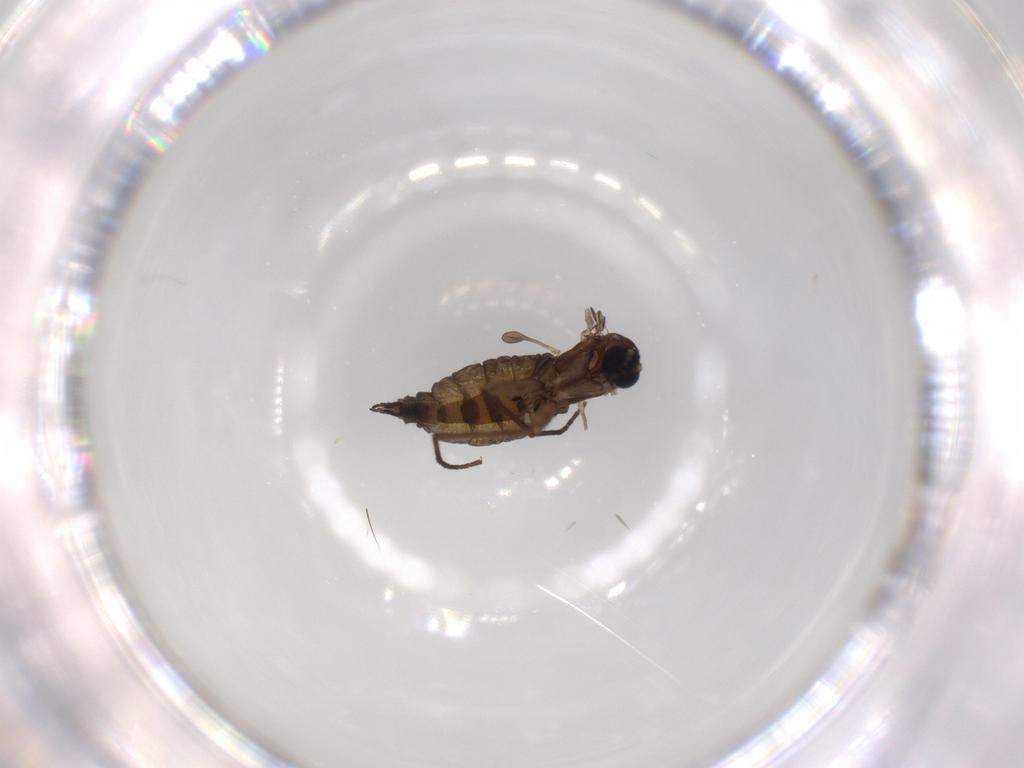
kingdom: Animalia
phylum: Arthropoda
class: Insecta
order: Diptera
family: Sciaridae
